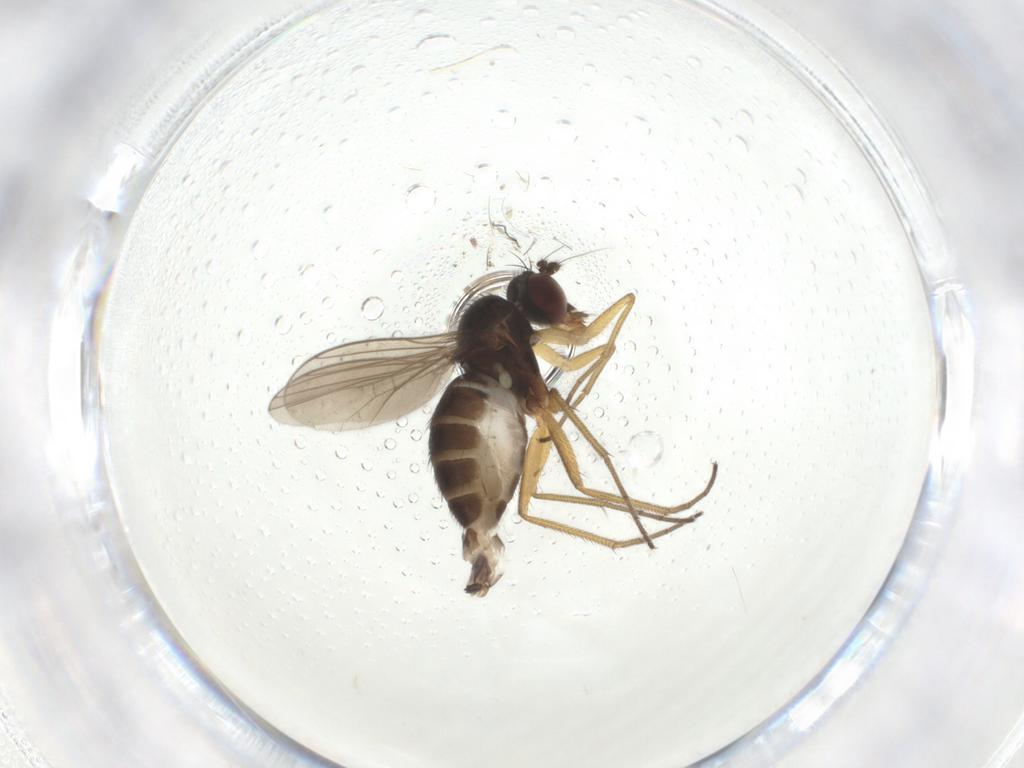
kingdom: Animalia
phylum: Arthropoda
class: Insecta
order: Diptera
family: Dolichopodidae
